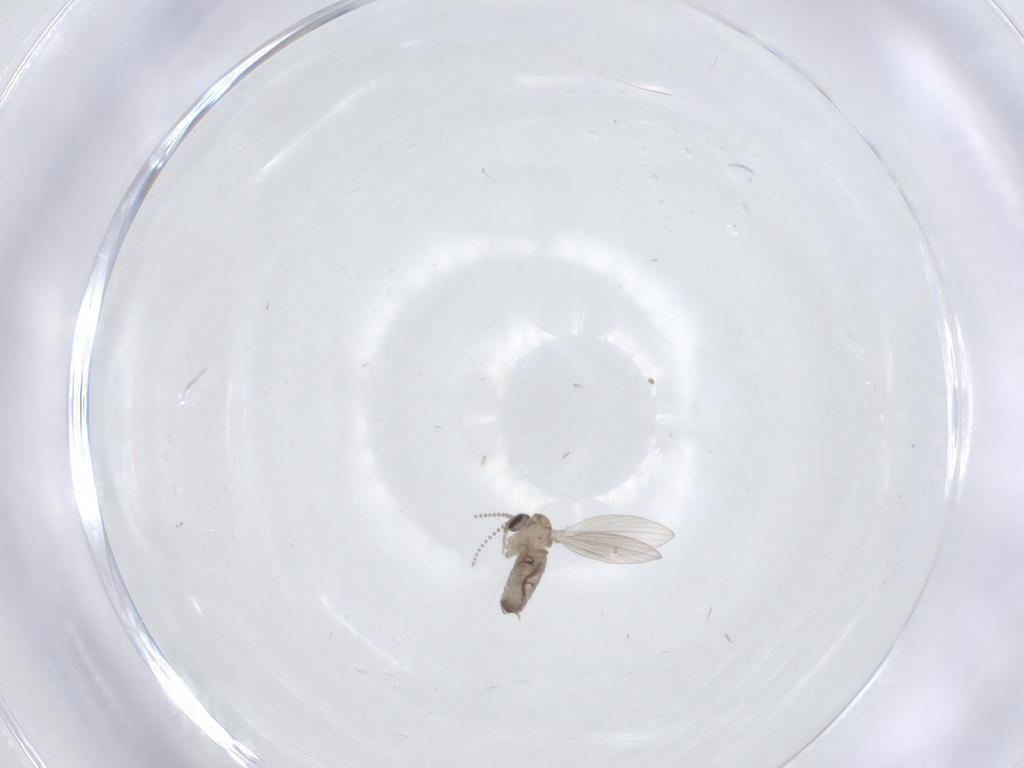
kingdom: Animalia
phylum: Arthropoda
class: Insecta
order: Diptera
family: Psychodidae
